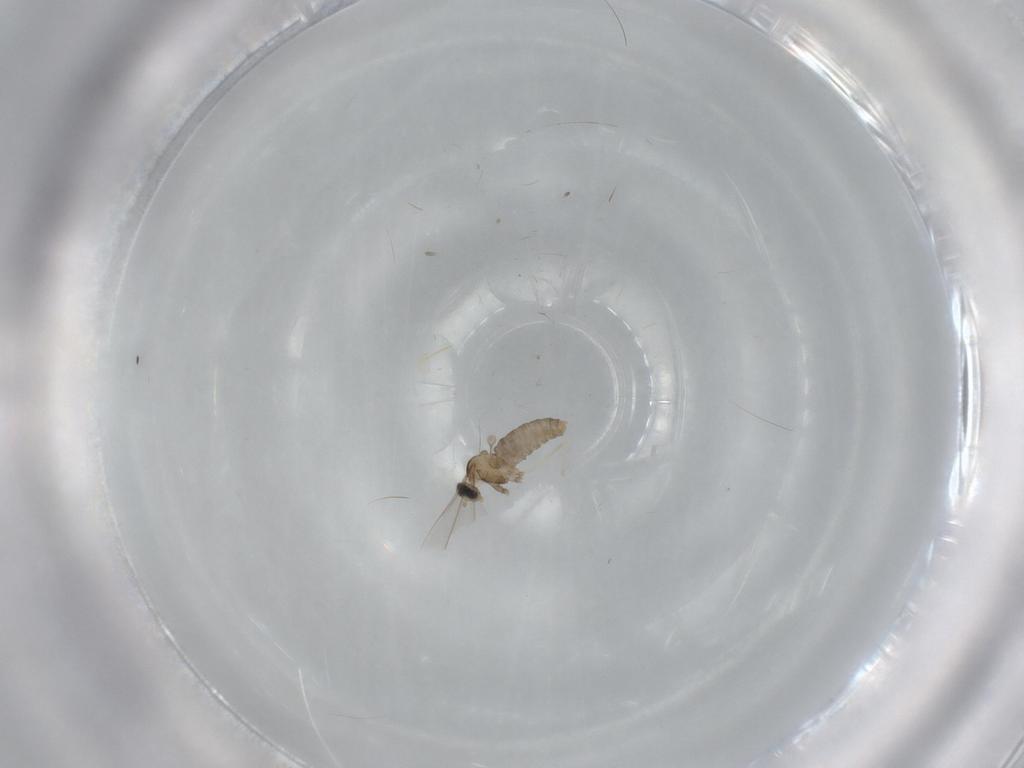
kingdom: Animalia
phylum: Arthropoda
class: Insecta
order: Diptera
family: Cecidomyiidae
